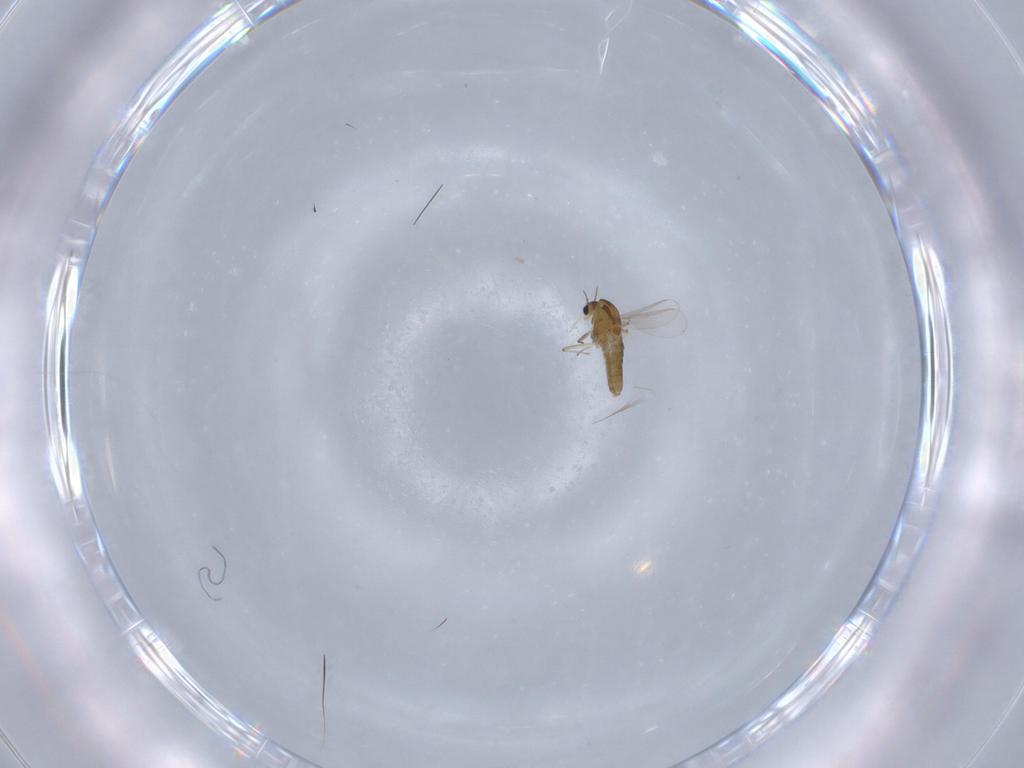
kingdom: Animalia
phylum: Arthropoda
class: Insecta
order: Diptera
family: Chironomidae
